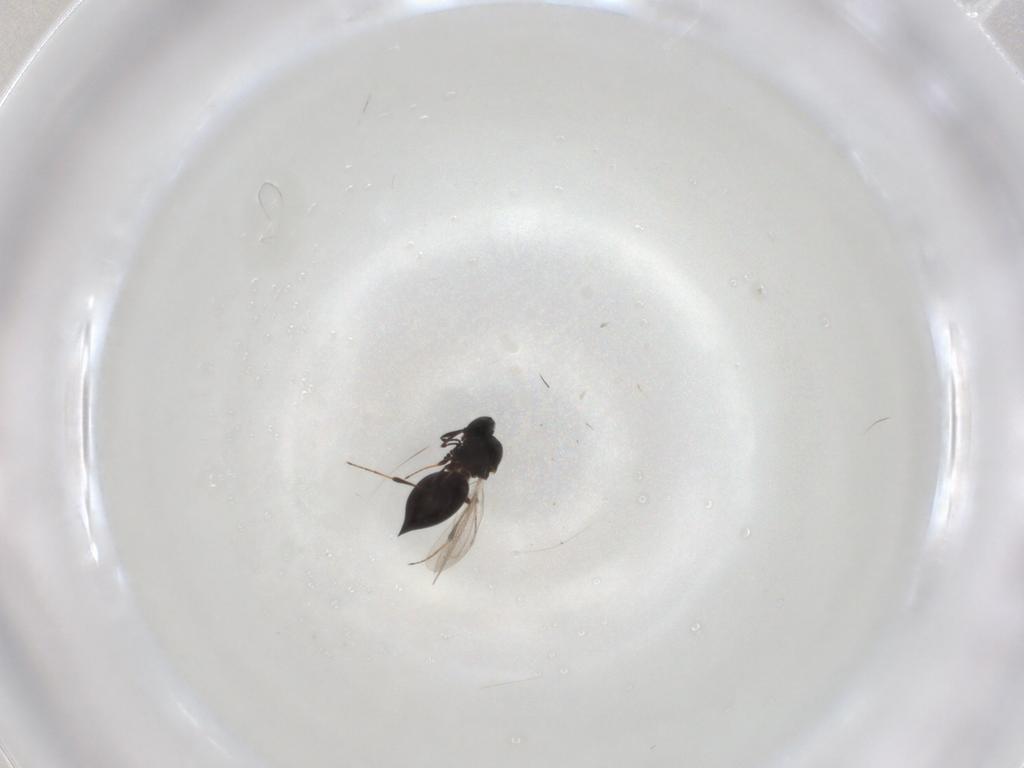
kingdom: Animalia
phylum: Arthropoda
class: Insecta
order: Hymenoptera
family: Platygastridae
